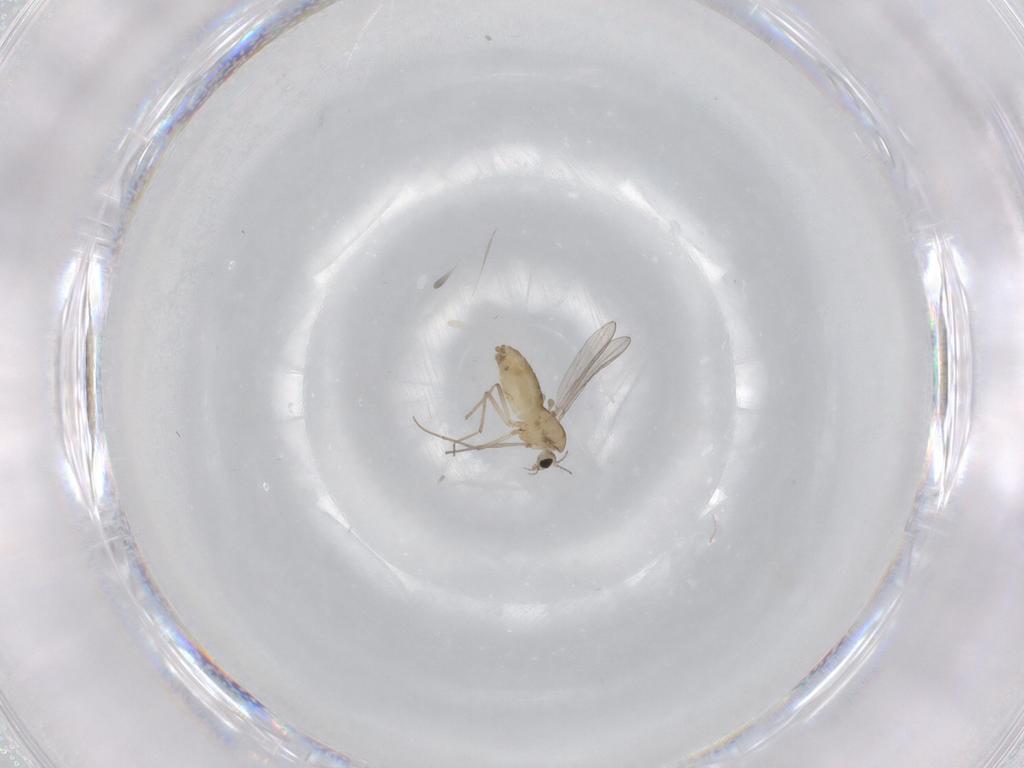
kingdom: Animalia
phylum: Arthropoda
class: Insecta
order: Diptera
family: Chironomidae
